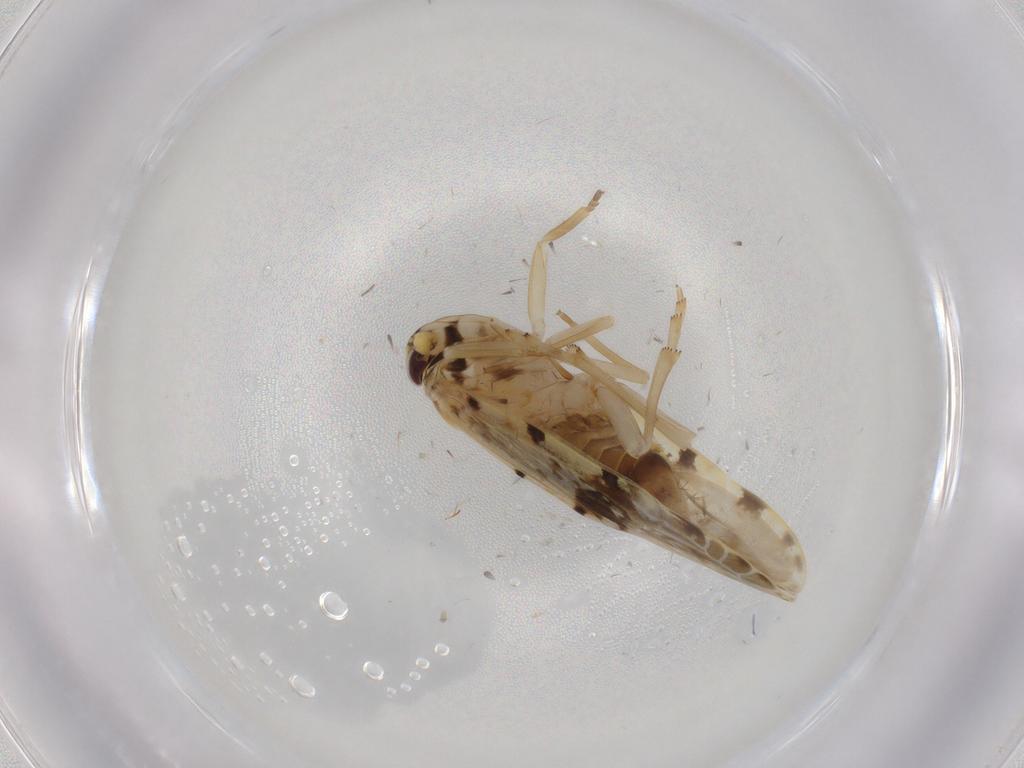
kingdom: Animalia
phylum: Arthropoda
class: Insecta
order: Hemiptera
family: Achilidae
